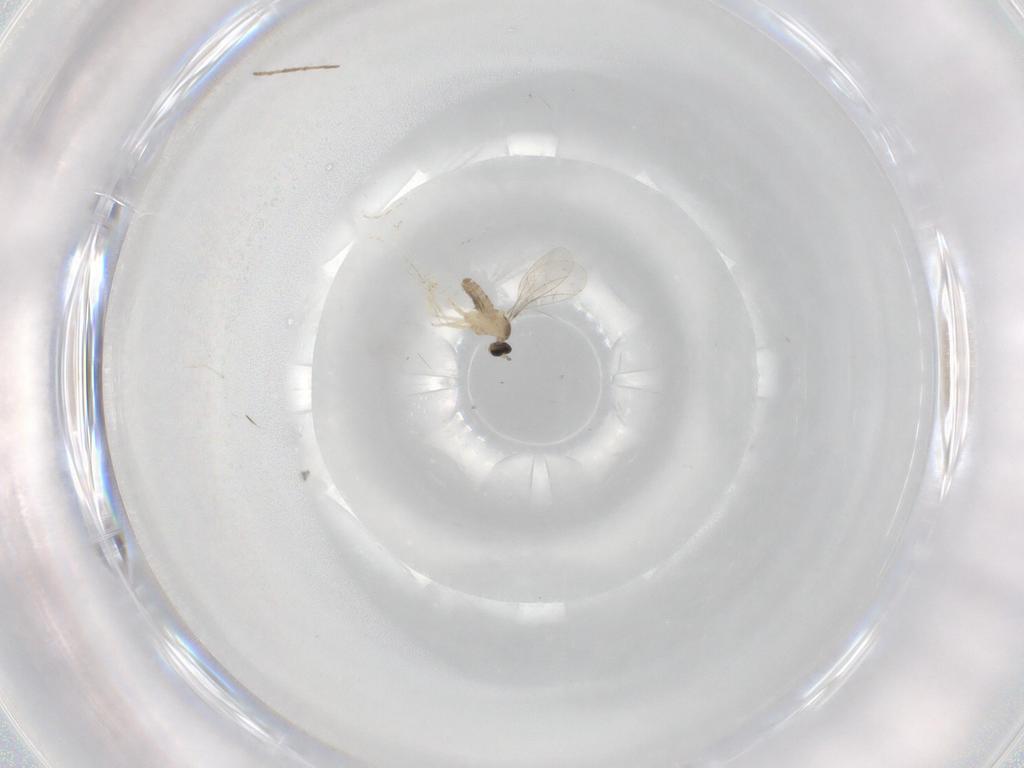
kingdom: Animalia
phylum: Arthropoda
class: Insecta
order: Diptera
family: Cecidomyiidae
